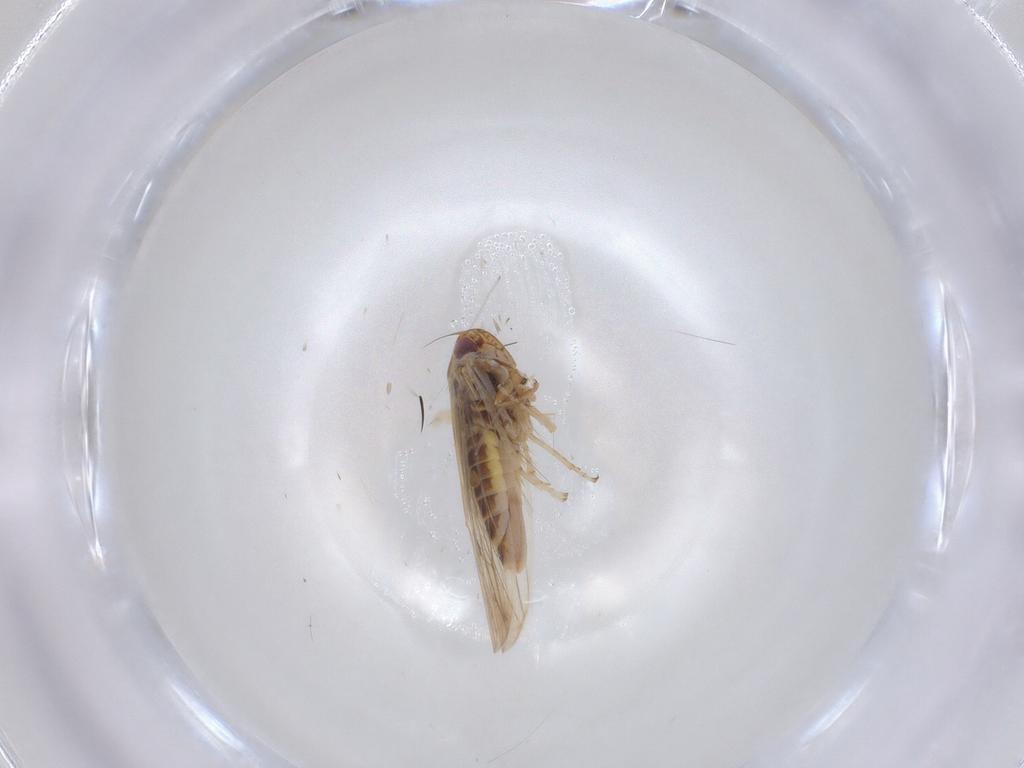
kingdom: Animalia
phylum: Arthropoda
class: Insecta
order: Hemiptera
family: Cicadellidae
